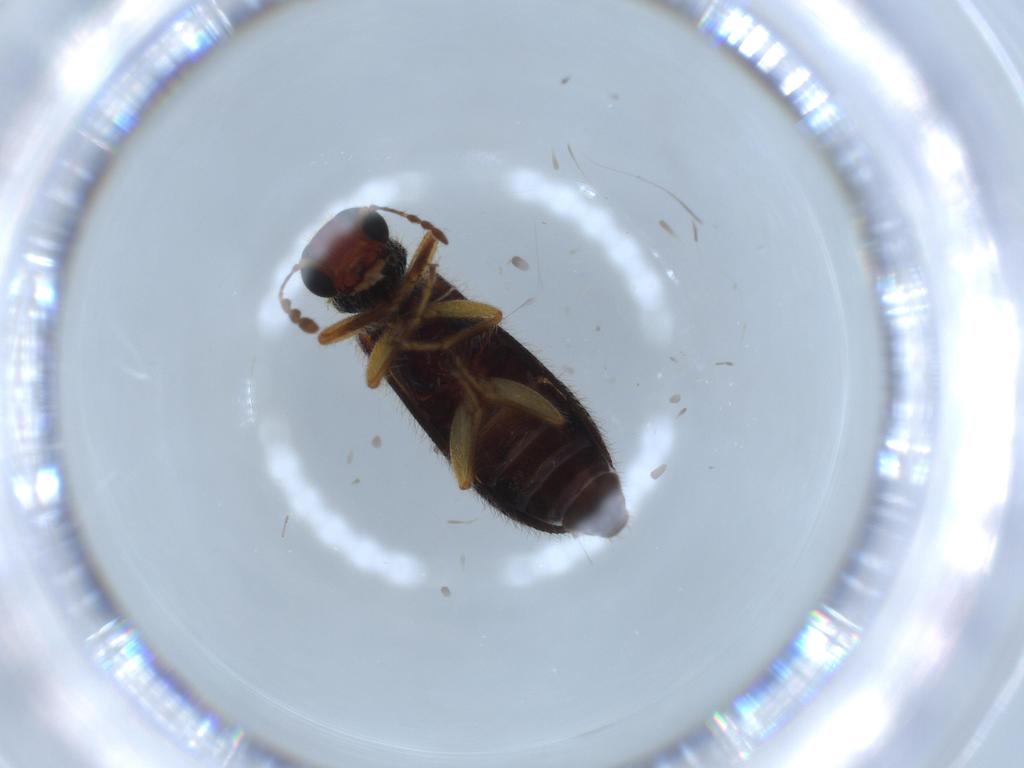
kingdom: Animalia
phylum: Arthropoda
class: Insecta
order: Coleoptera
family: Cleridae
